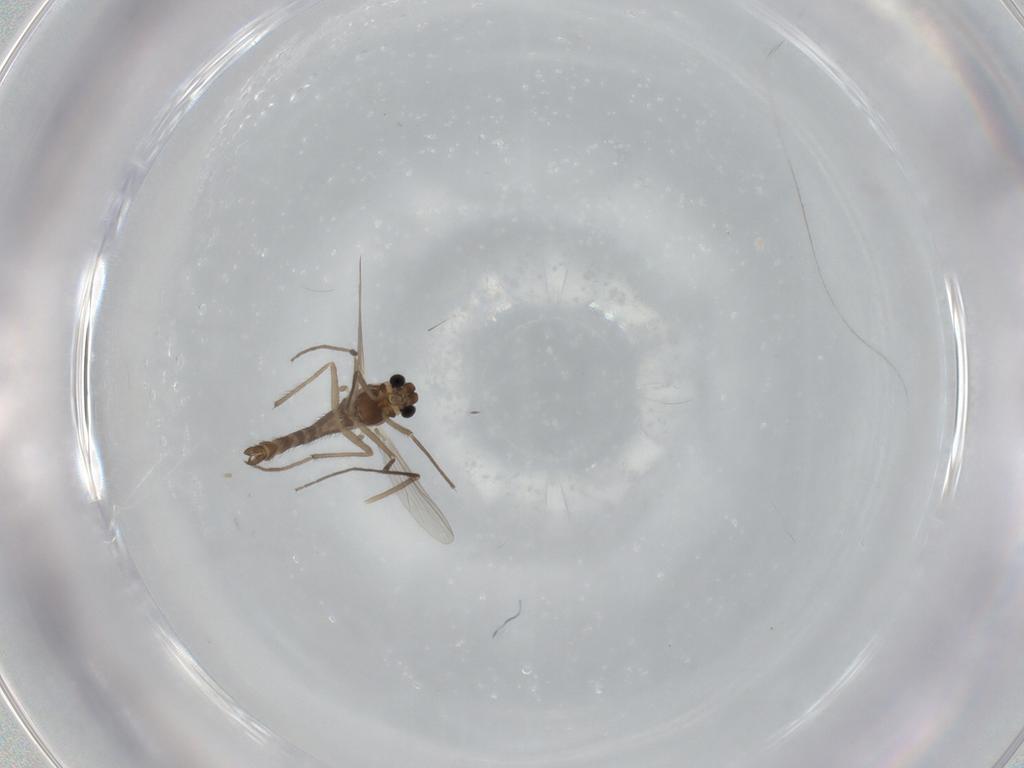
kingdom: Animalia
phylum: Arthropoda
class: Insecta
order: Diptera
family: Chironomidae
